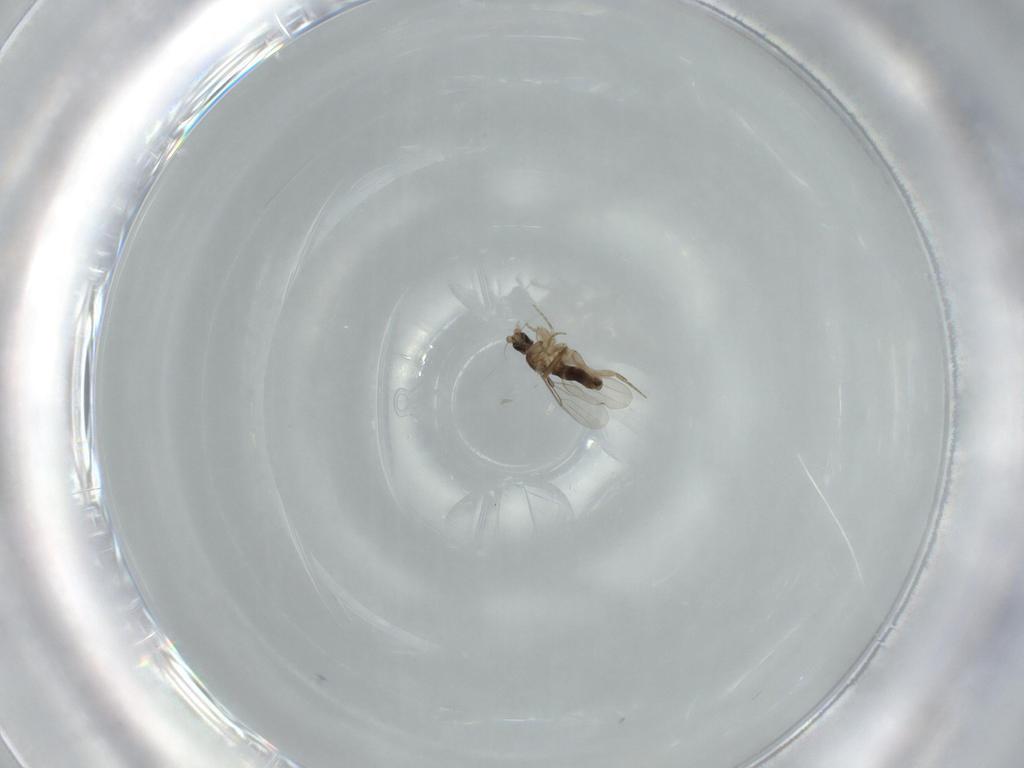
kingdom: Animalia
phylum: Arthropoda
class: Insecta
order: Diptera
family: Phoridae
